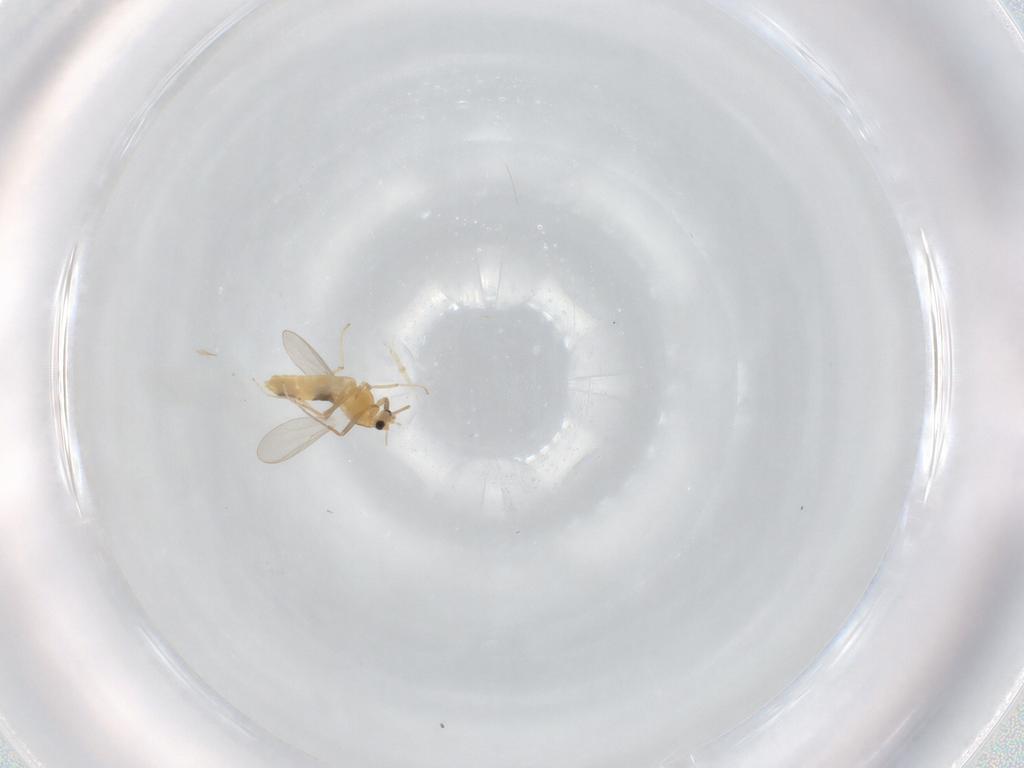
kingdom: Animalia
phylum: Arthropoda
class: Insecta
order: Diptera
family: Chironomidae
